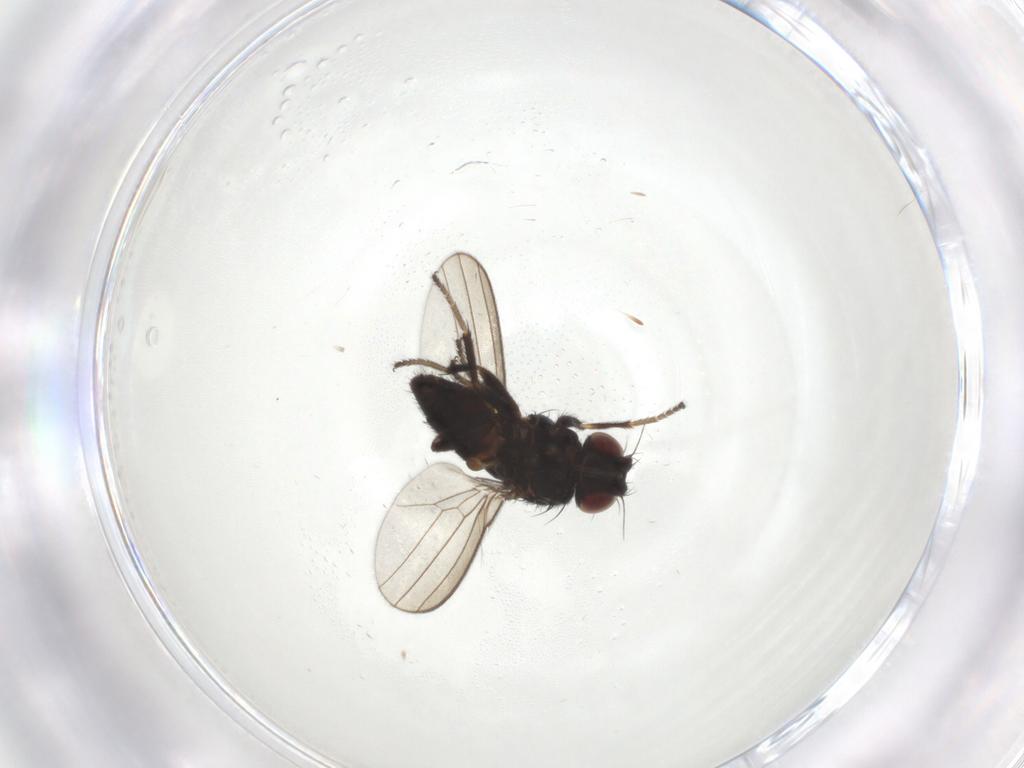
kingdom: Animalia
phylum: Arthropoda
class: Insecta
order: Diptera
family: Milichiidae
